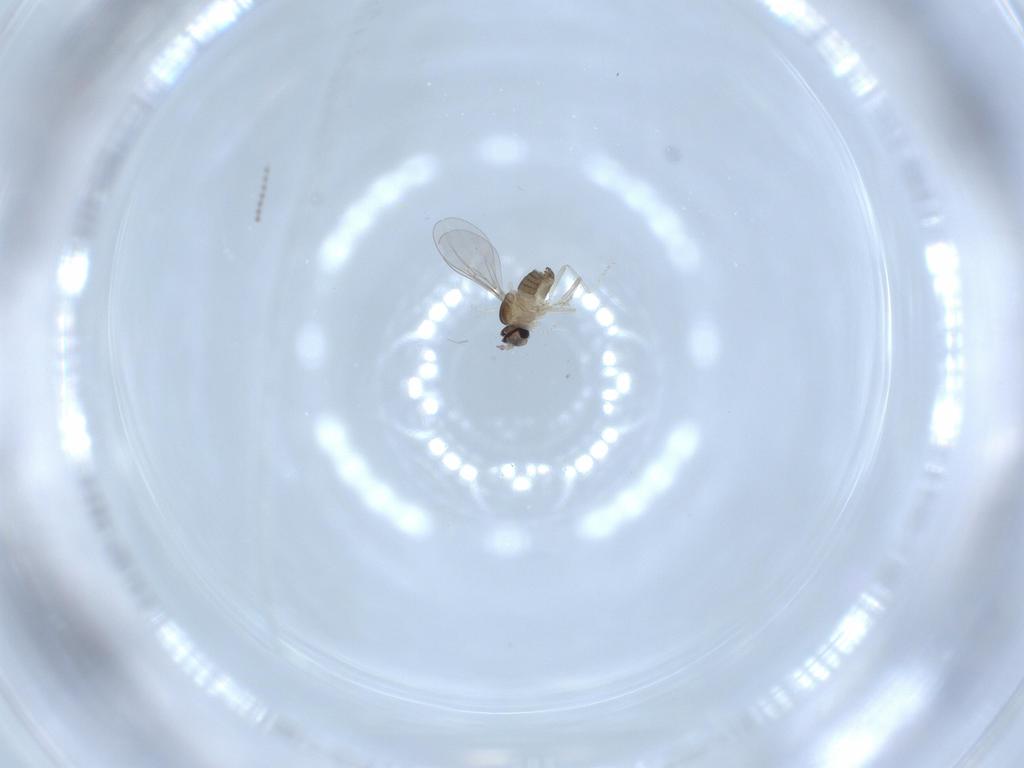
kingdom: Animalia
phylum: Arthropoda
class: Insecta
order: Diptera
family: Cecidomyiidae
